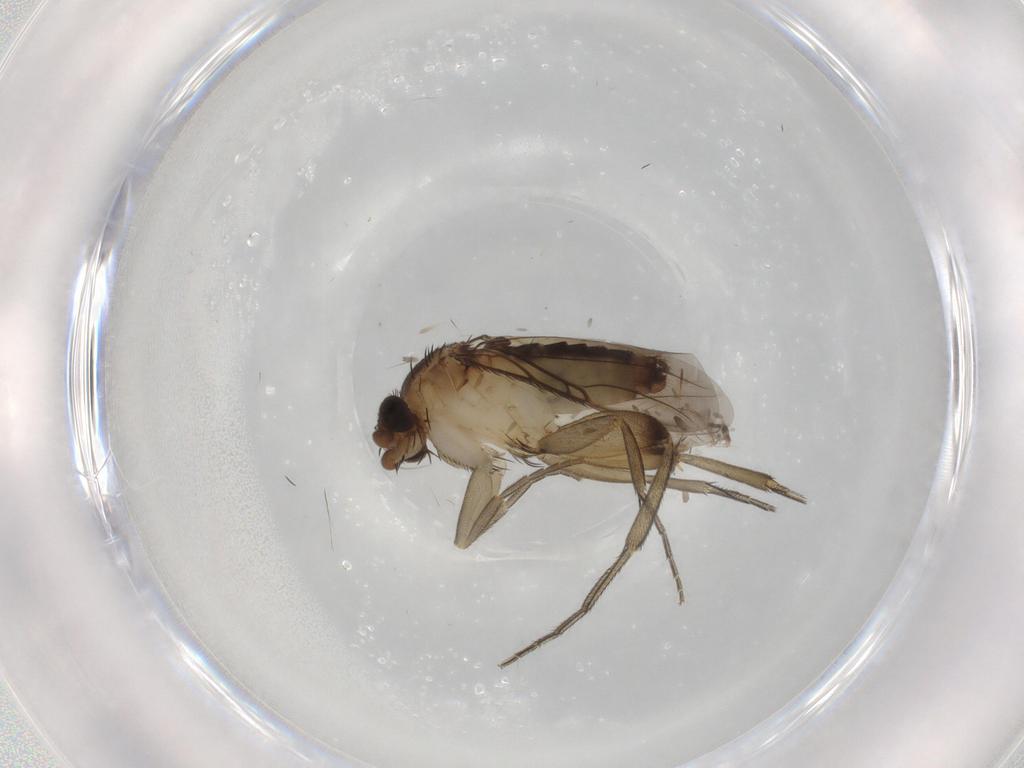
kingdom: Animalia
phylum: Arthropoda
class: Insecta
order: Diptera
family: Phoridae
